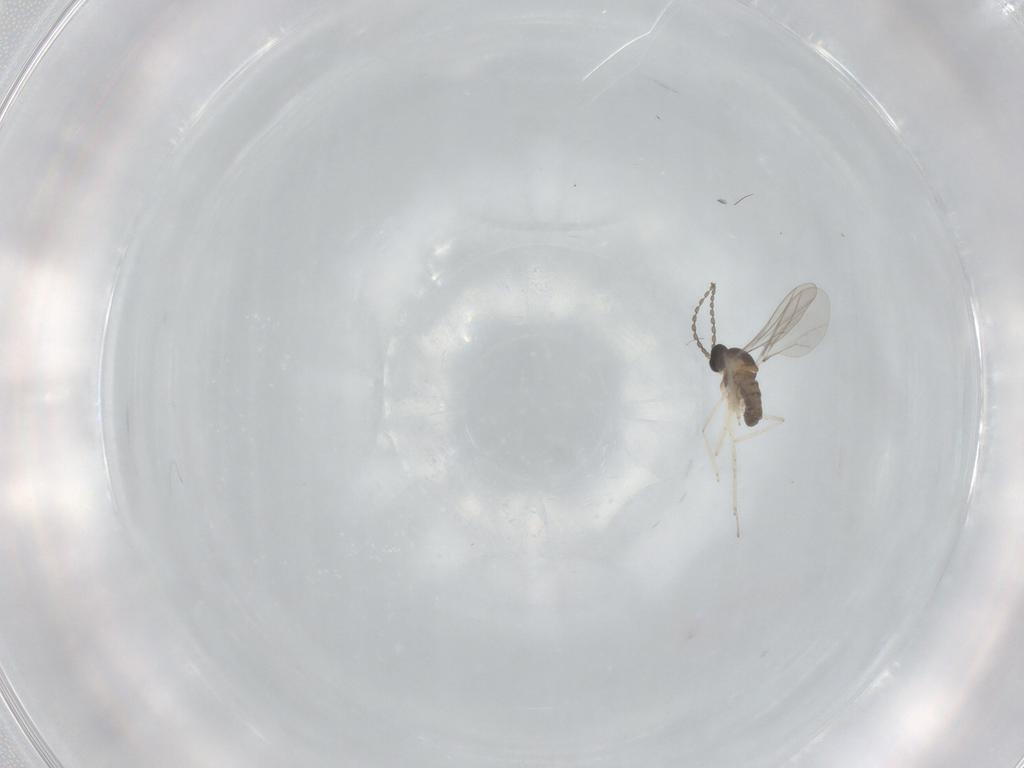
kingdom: Animalia
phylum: Arthropoda
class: Insecta
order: Diptera
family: Cecidomyiidae
